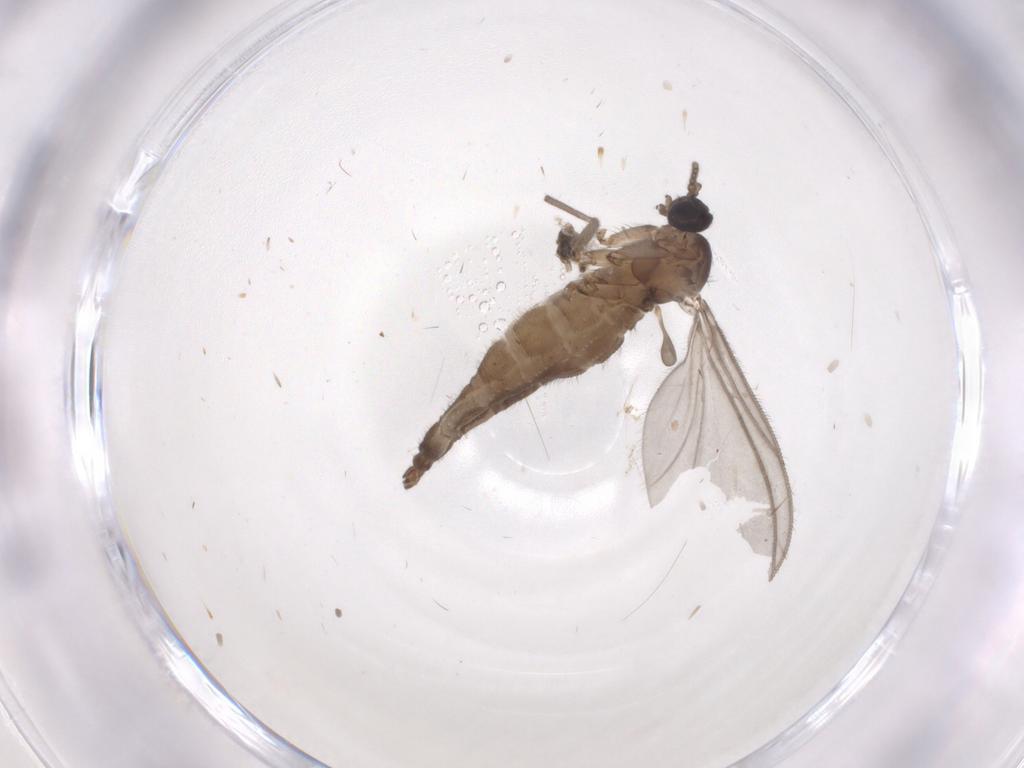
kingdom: Animalia
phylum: Arthropoda
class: Insecta
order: Diptera
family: Sciaridae
